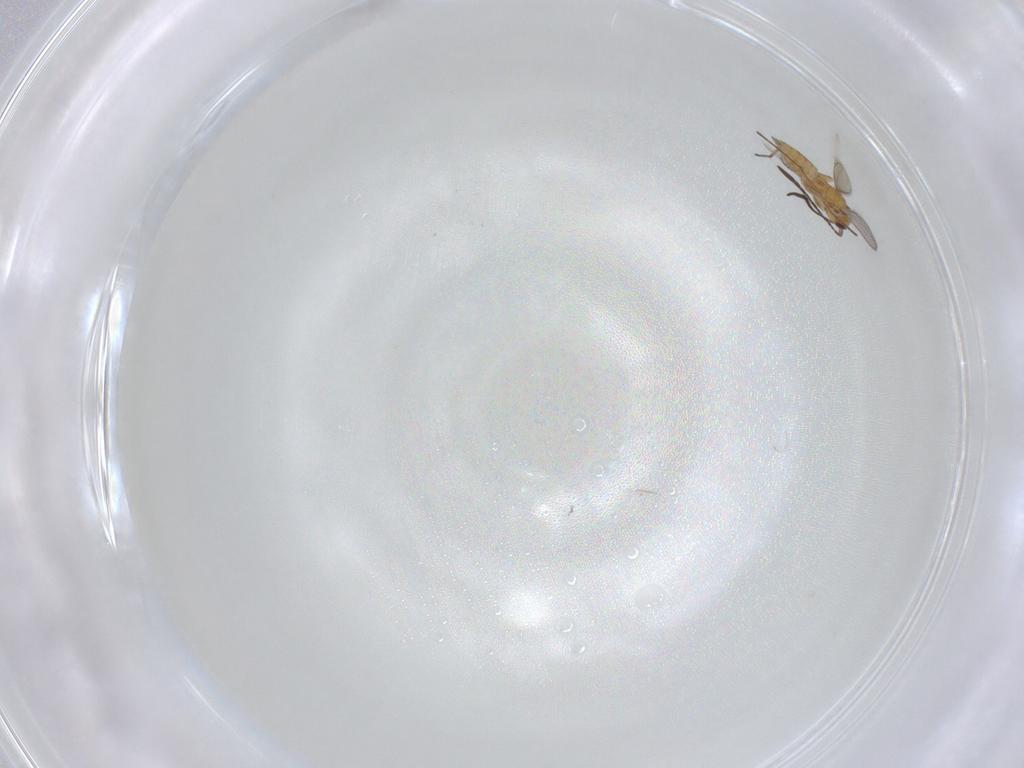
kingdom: Animalia
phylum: Arthropoda
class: Insecta
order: Hymenoptera
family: Mymaridae
